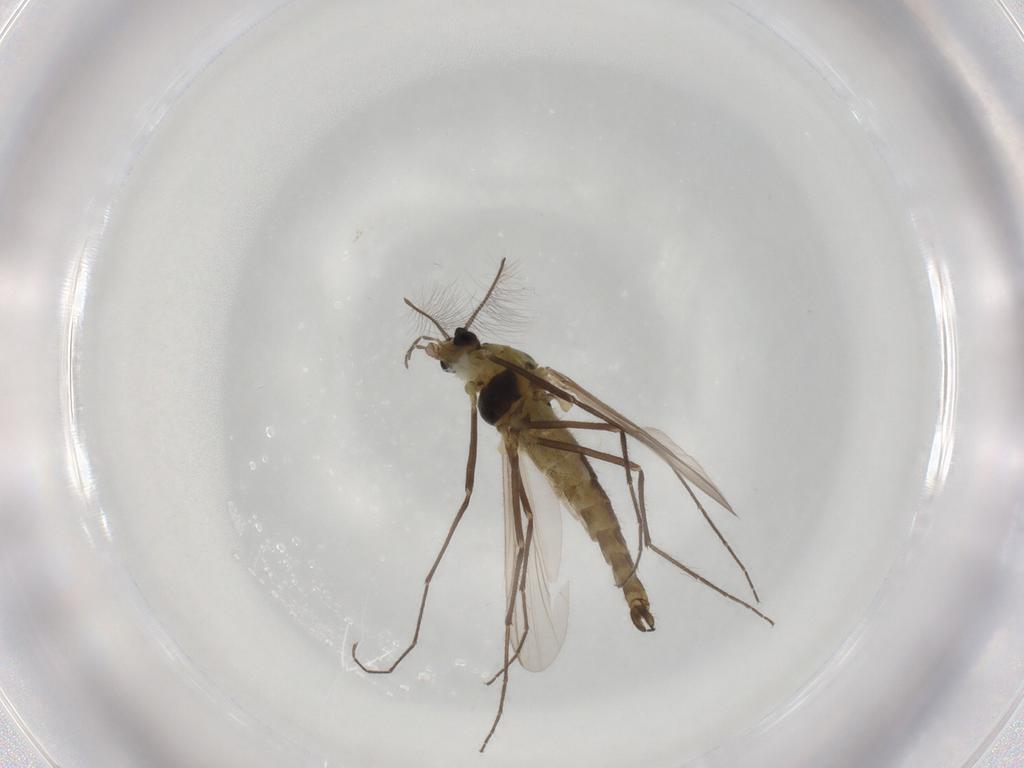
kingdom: Animalia
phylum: Arthropoda
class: Insecta
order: Diptera
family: Chironomidae
